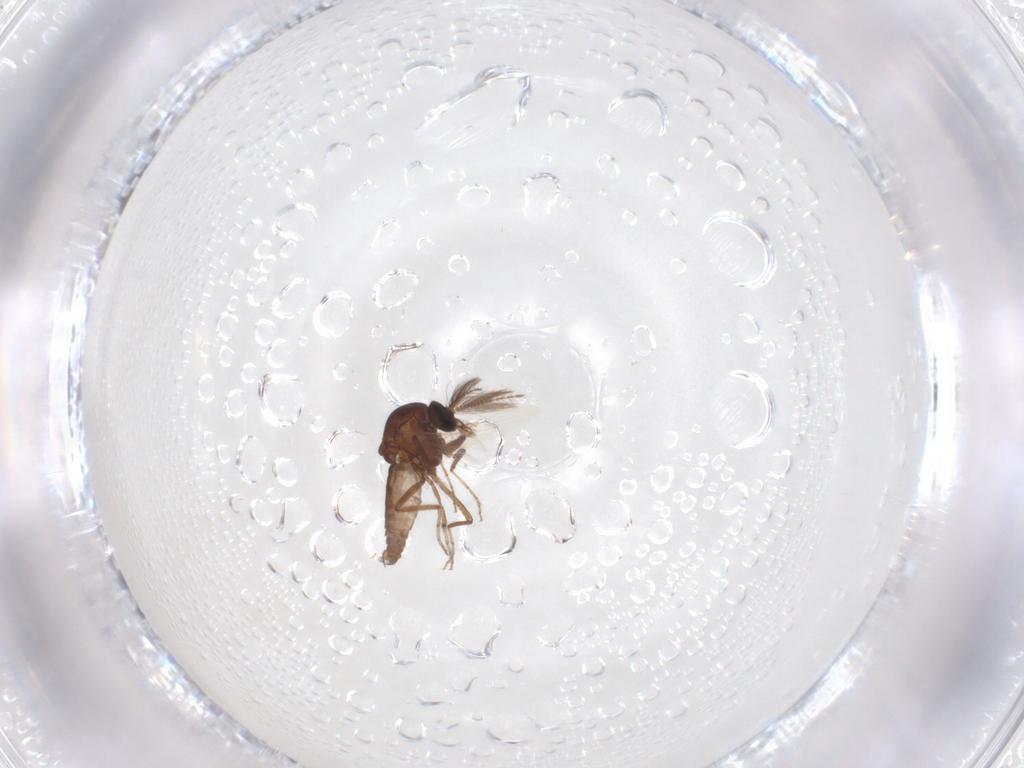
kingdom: Animalia
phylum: Arthropoda
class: Insecta
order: Diptera
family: Ceratopogonidae
